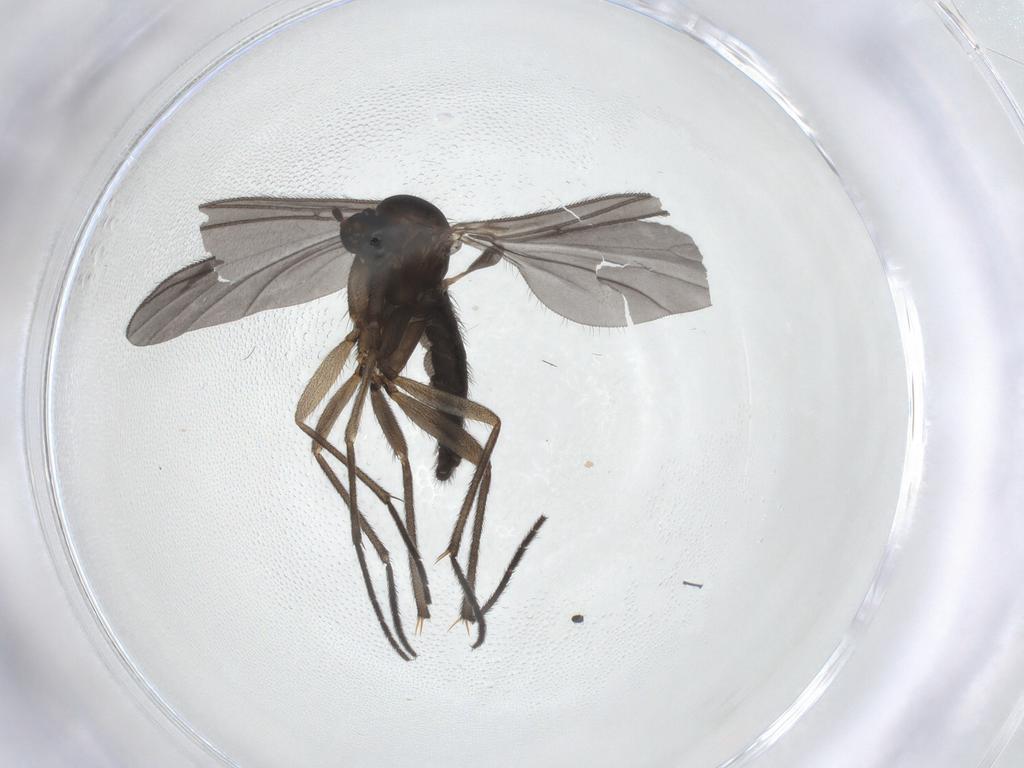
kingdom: Animalia
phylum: Arthropoda
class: Insecta
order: Diptera
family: Sciaridae
